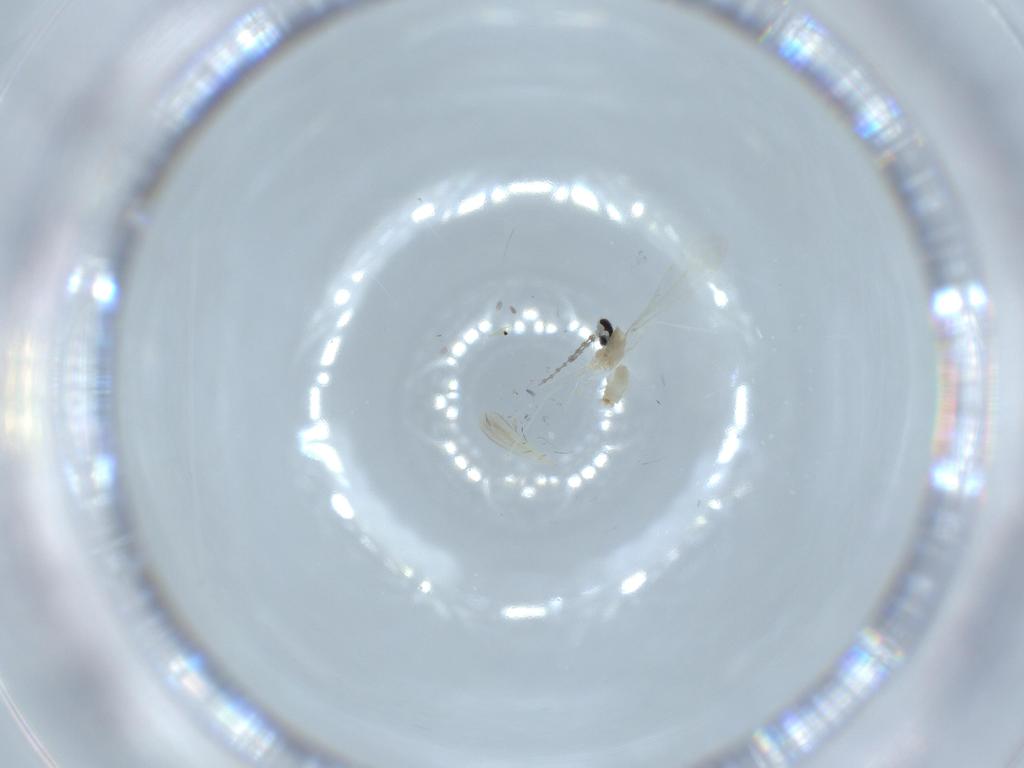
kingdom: Animalia
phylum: Arthropoda
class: Insecta
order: Diptera
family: Cecidomyiidae
